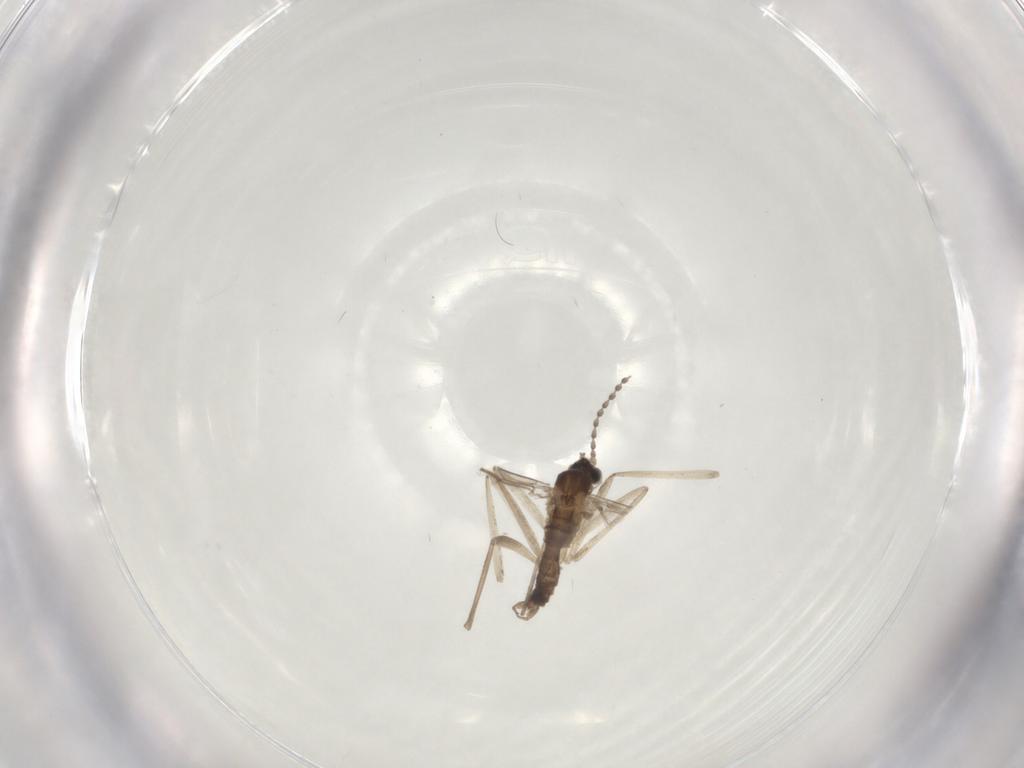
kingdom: Animalia
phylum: Arthropoda
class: Insecta
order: Diptera
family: Cecidomyiidae
